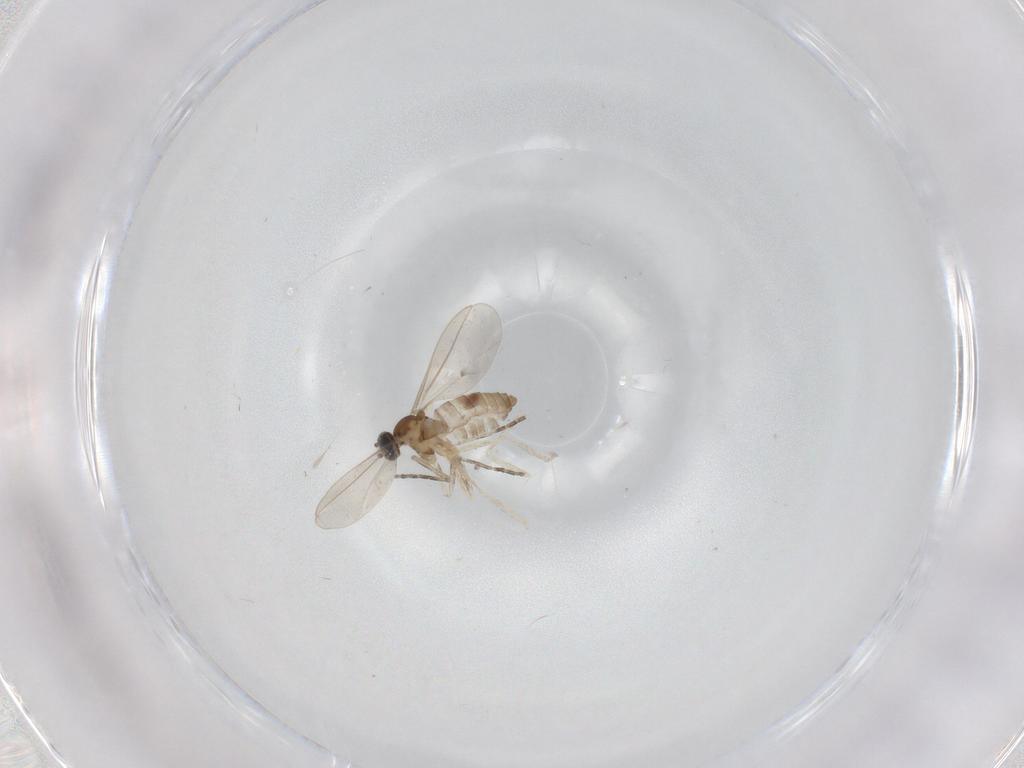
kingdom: Animalia
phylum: Arthropoda
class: Insecta
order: Diptera
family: Cecidomyiidae
